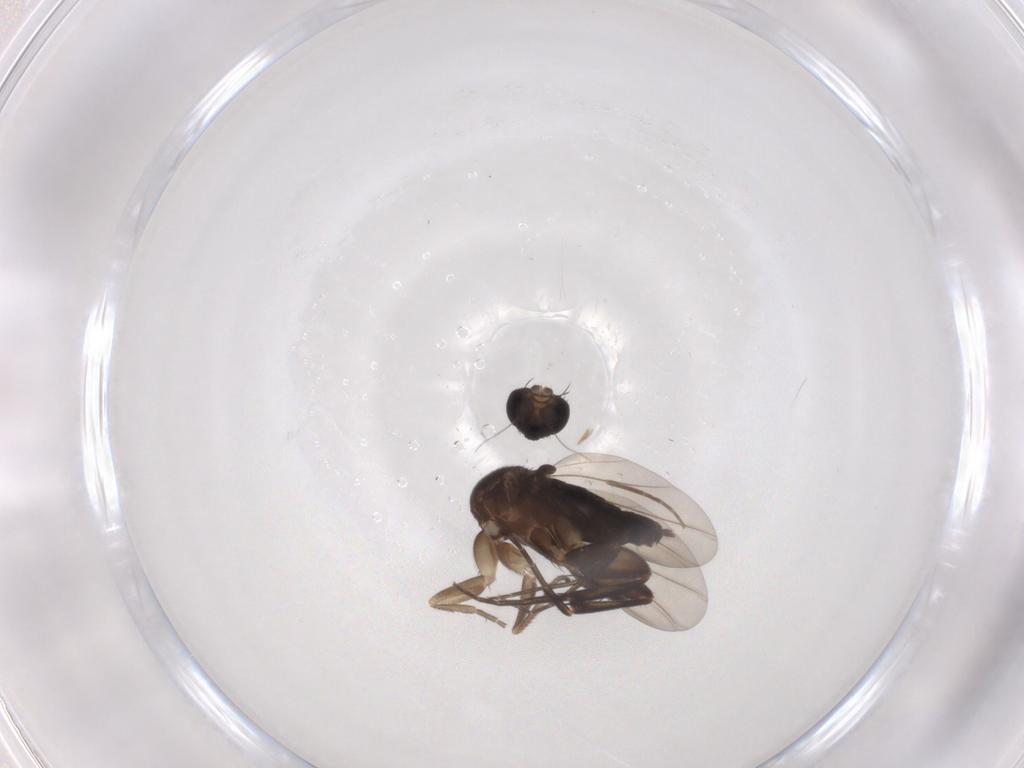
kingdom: Animalia
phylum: Arthropoda
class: Insecta
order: Diptera
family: Phoridae
